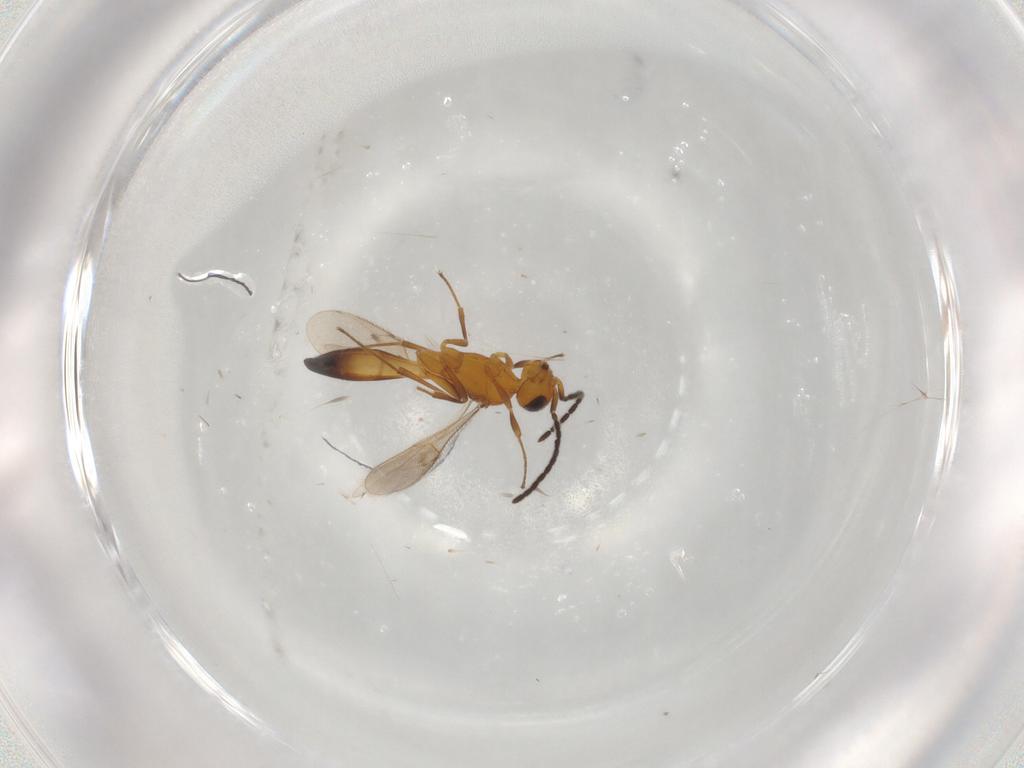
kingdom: Animalia
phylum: Arthropoda
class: Insecta
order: Hymenoptera
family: Scelionidae
